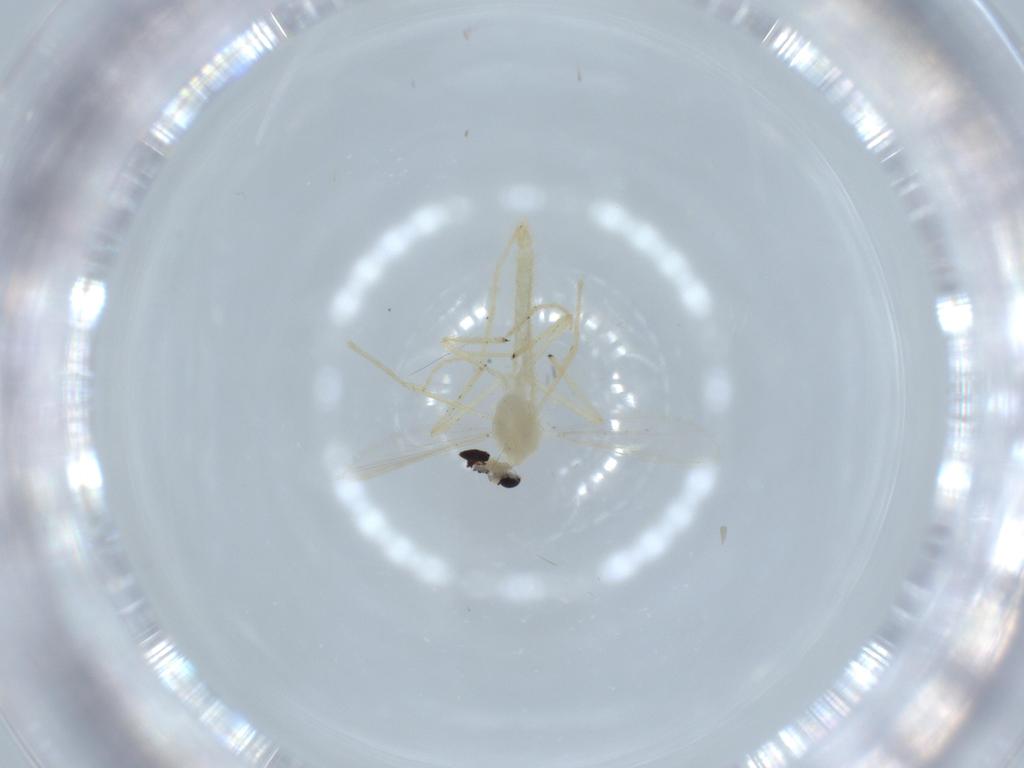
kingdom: Animalia
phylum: Arthropoda
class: Insecta
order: Diptera
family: Chironomidae
